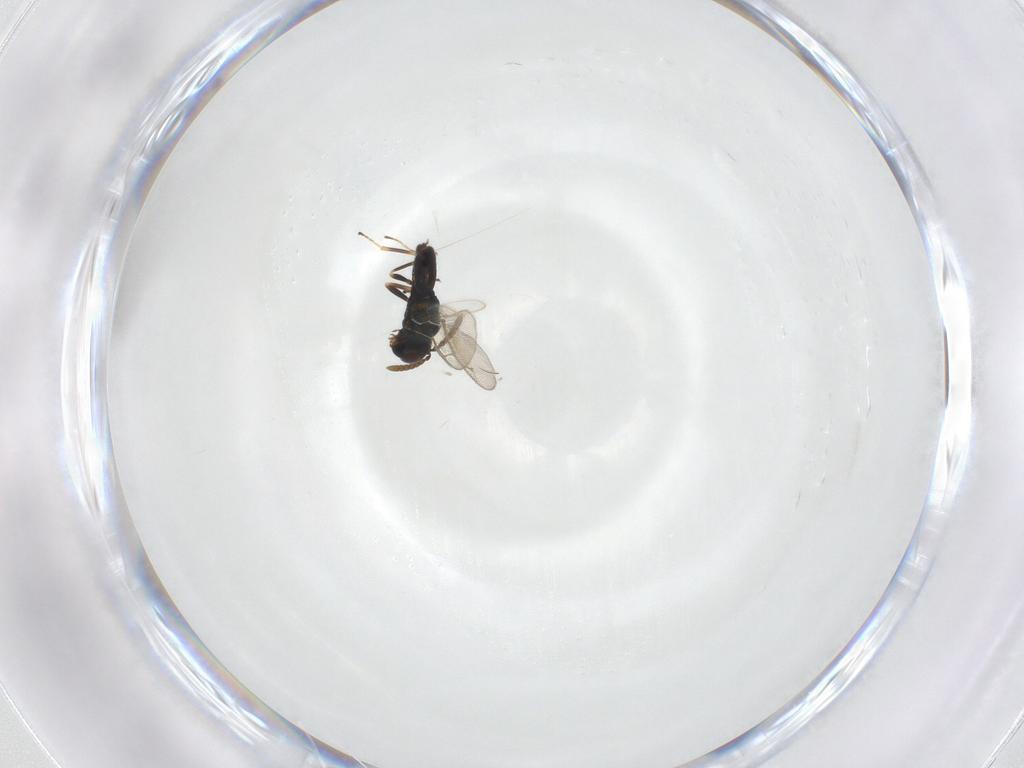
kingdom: Animalia
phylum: Arthropoda
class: Insecta
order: Hymenoptera
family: Pteromalidae
